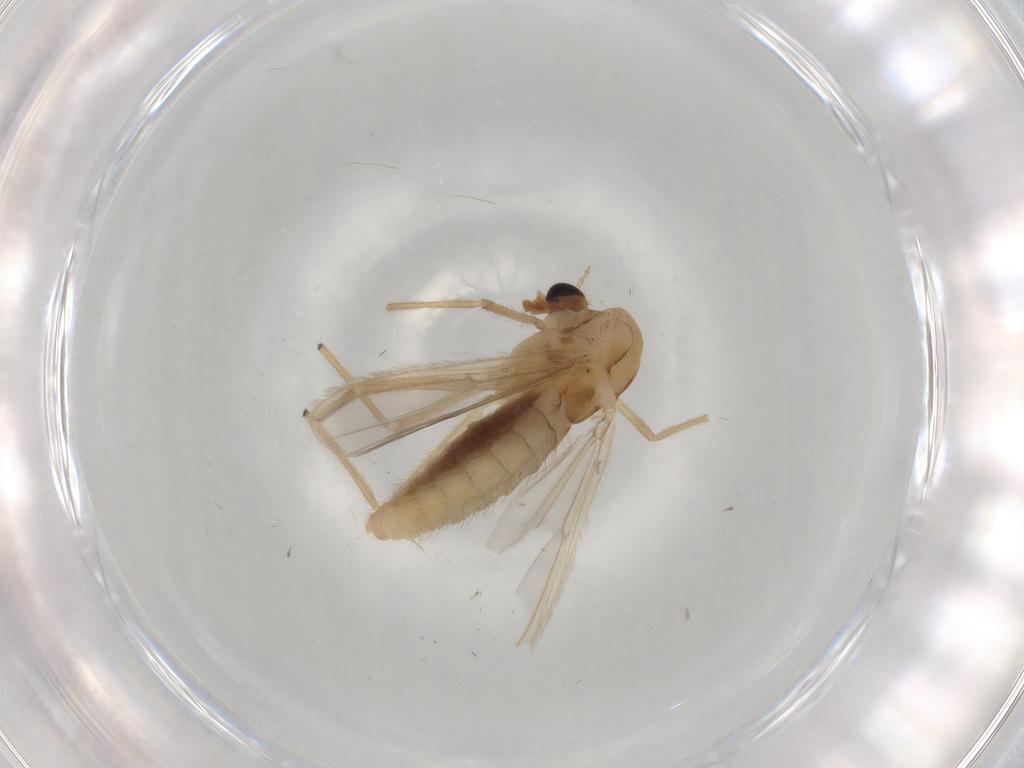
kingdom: Animalia
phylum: Arthropoda
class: Insecta
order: Diptera
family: Chironomidae
